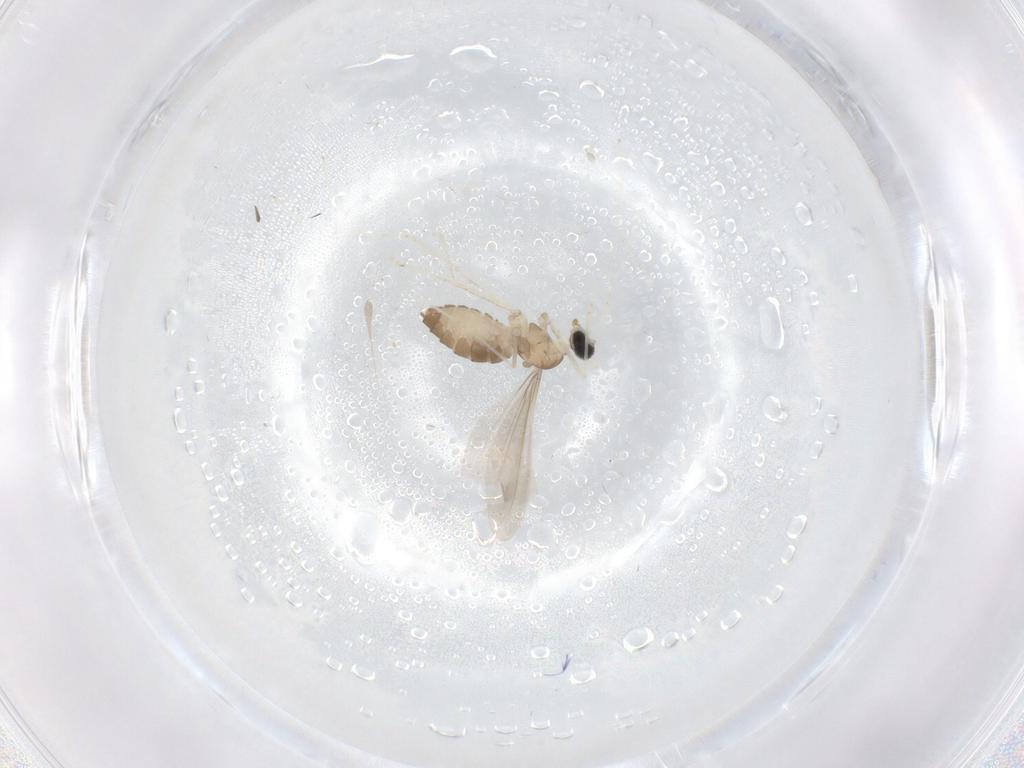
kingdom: Animalia
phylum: Arthropoda
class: Insecta
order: Diptera
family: Cecidomyiidae
